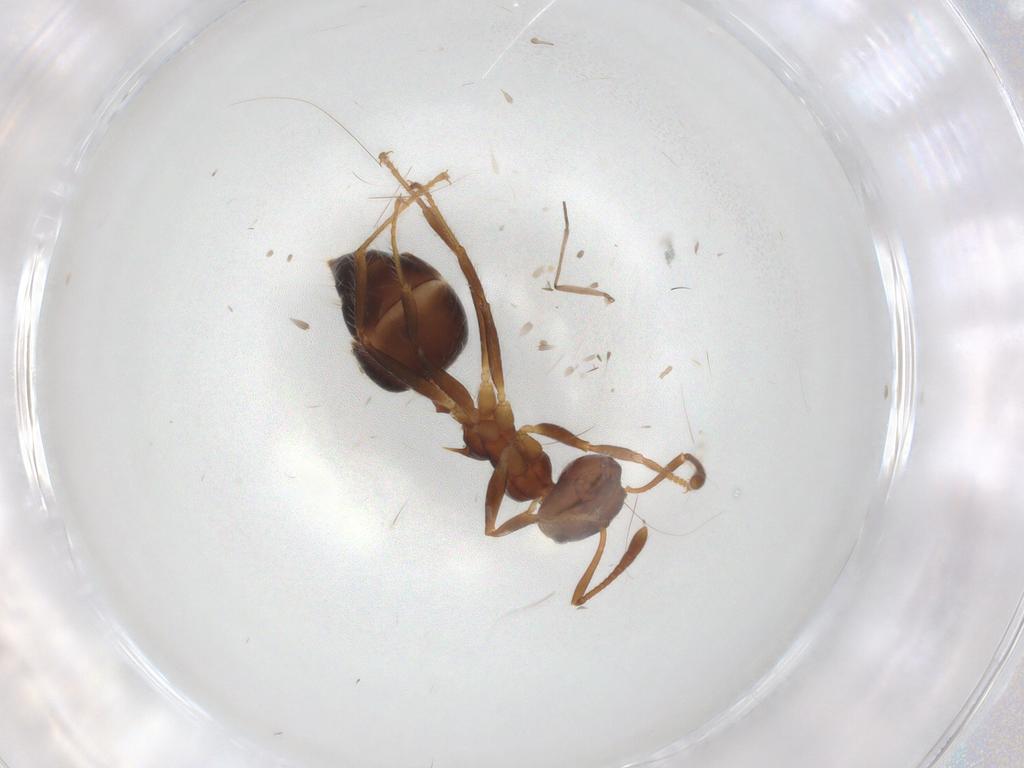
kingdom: Animalia
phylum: Arthropoda
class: Insecta
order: Hymenoptera
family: Chalcididae
